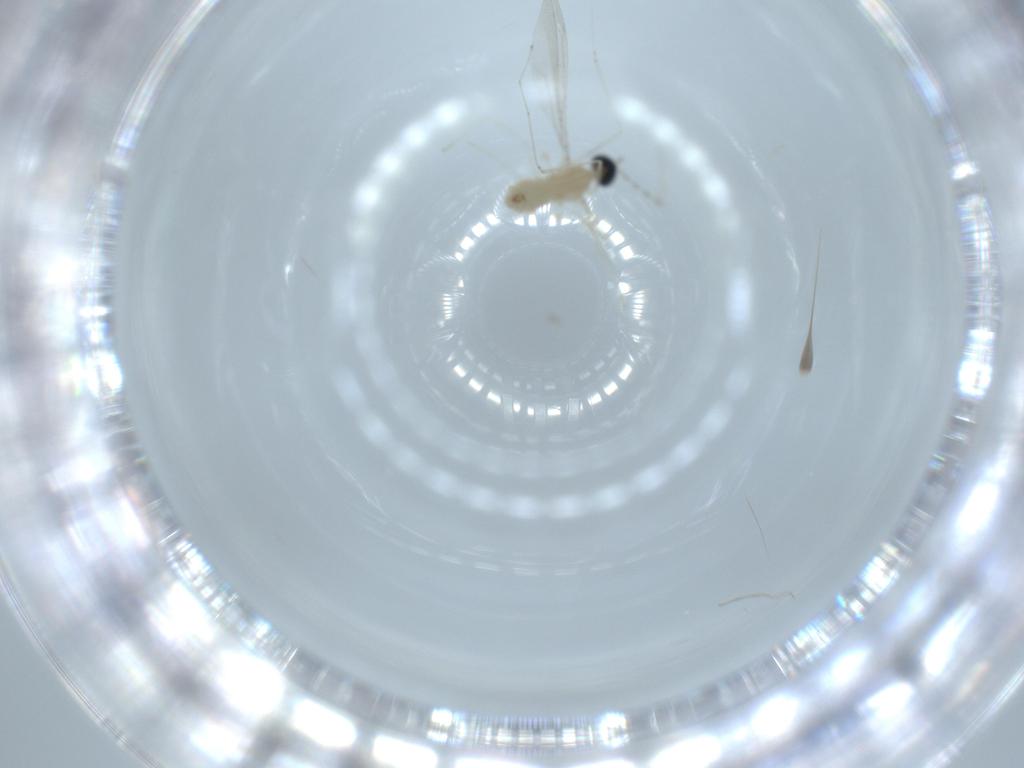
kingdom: Animalia
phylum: Arthropoda
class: Insecta
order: Diptera
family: Cecidomyiidae
